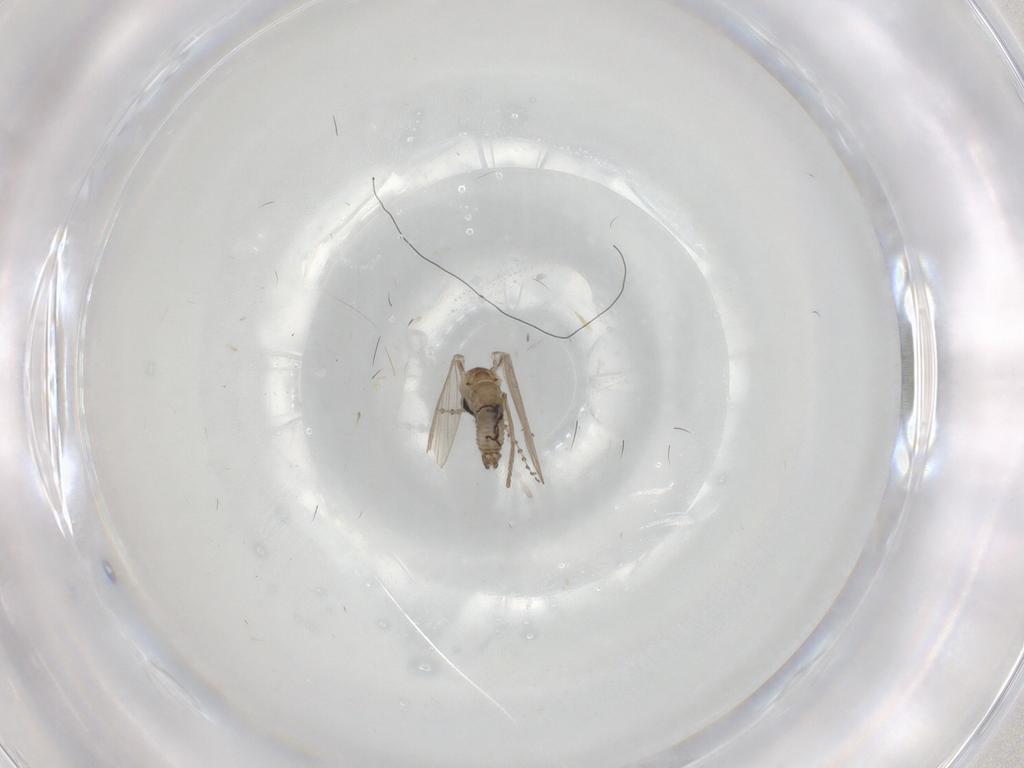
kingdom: Animalia
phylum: Arthropoda
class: Insecta
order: Diptera
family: Psychodidae
